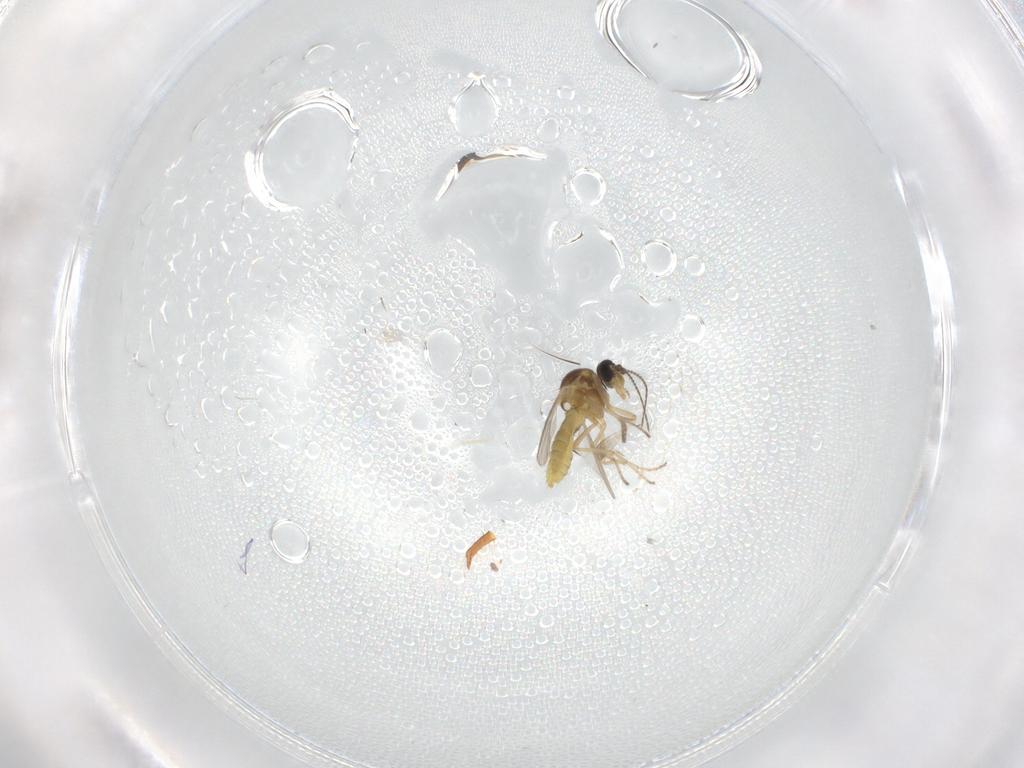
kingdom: Animalia
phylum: Arthropoda
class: Insecta
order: Diptera
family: Ceratopogonidae
